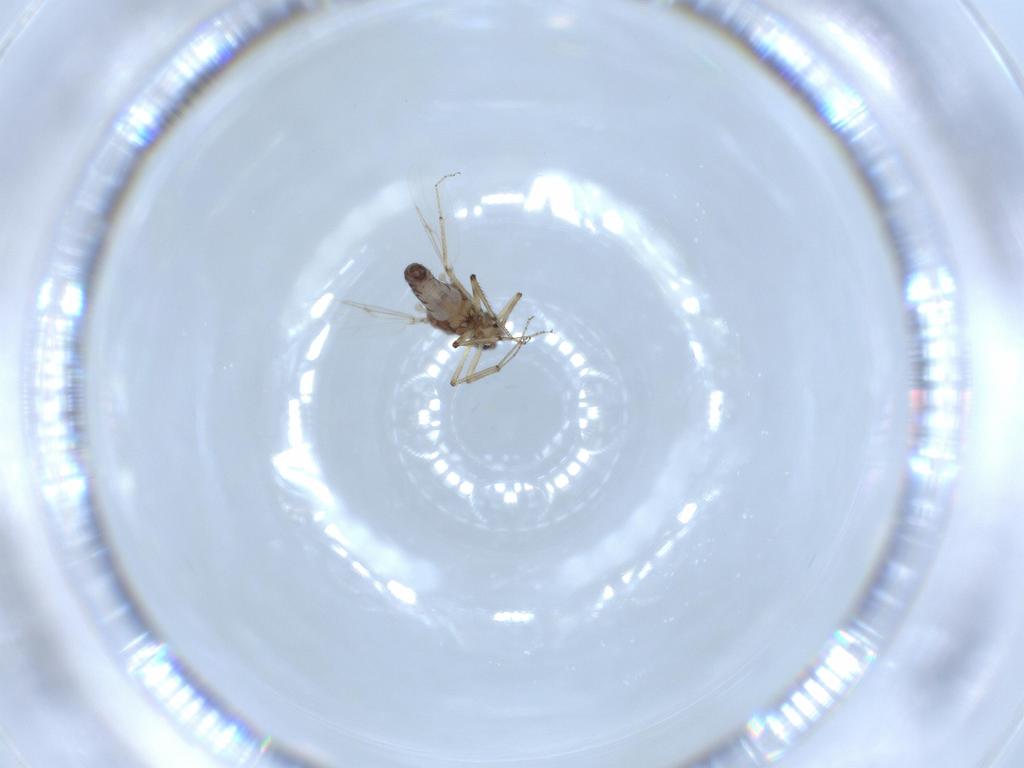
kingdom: Animalia
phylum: Arthropoda
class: Insecta
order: Diptera
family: Ceratopogonidae
